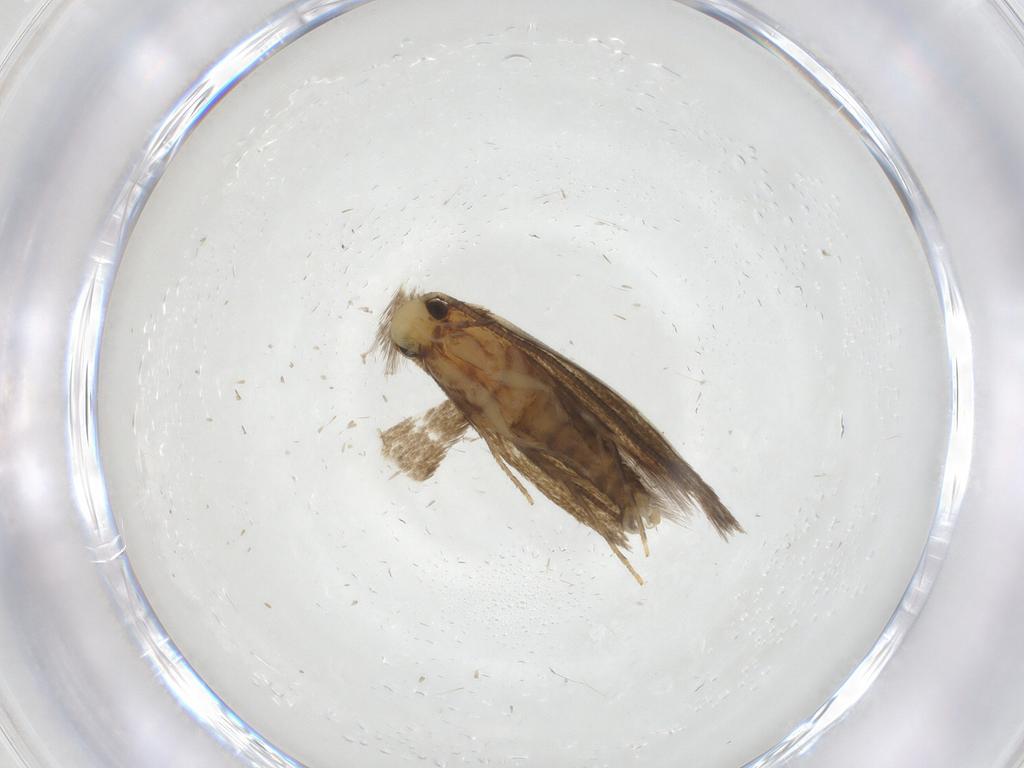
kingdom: Animalia
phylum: Arthropoda
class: Insecta
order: Lepidoptera
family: Tineidae
